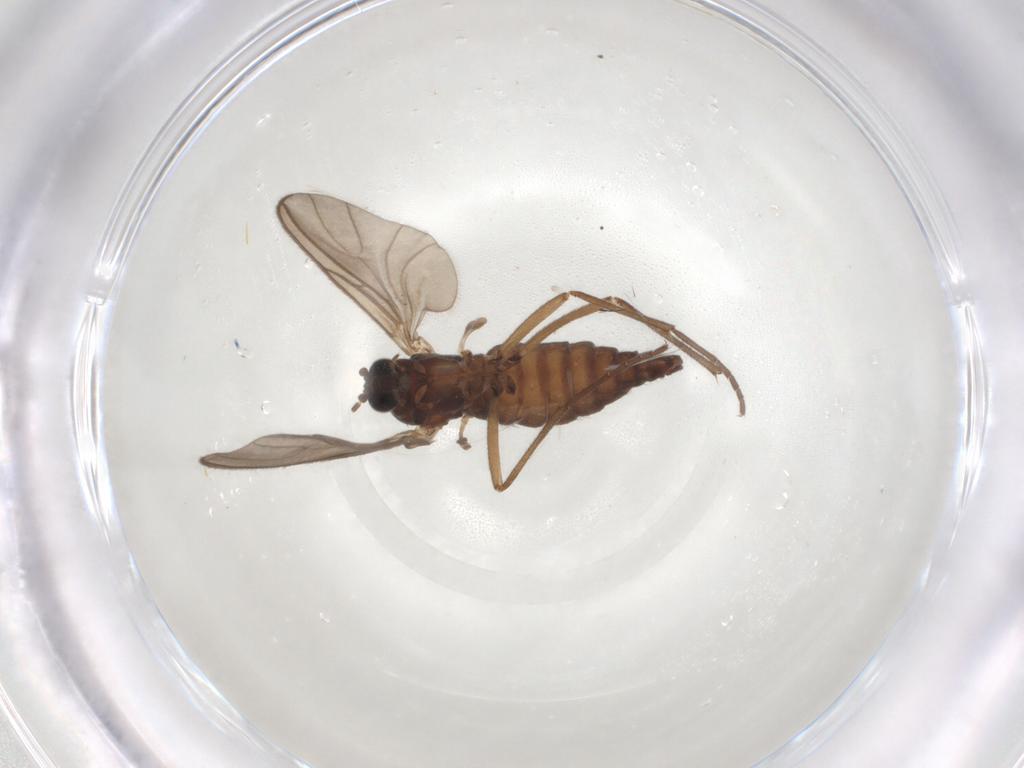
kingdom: Animalia
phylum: Arthropoda
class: Insecta
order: Diptera
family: Sciaridae
